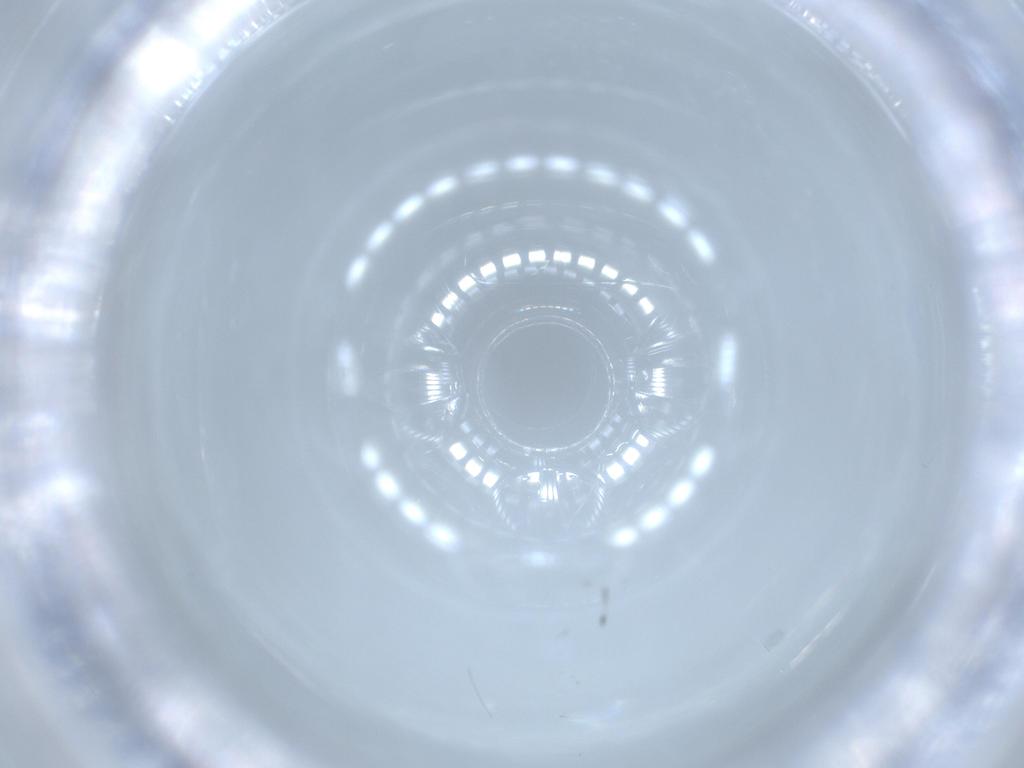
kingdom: Animalia
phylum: Arthropoda
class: Insecta
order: Diptera
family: Chironomidae
